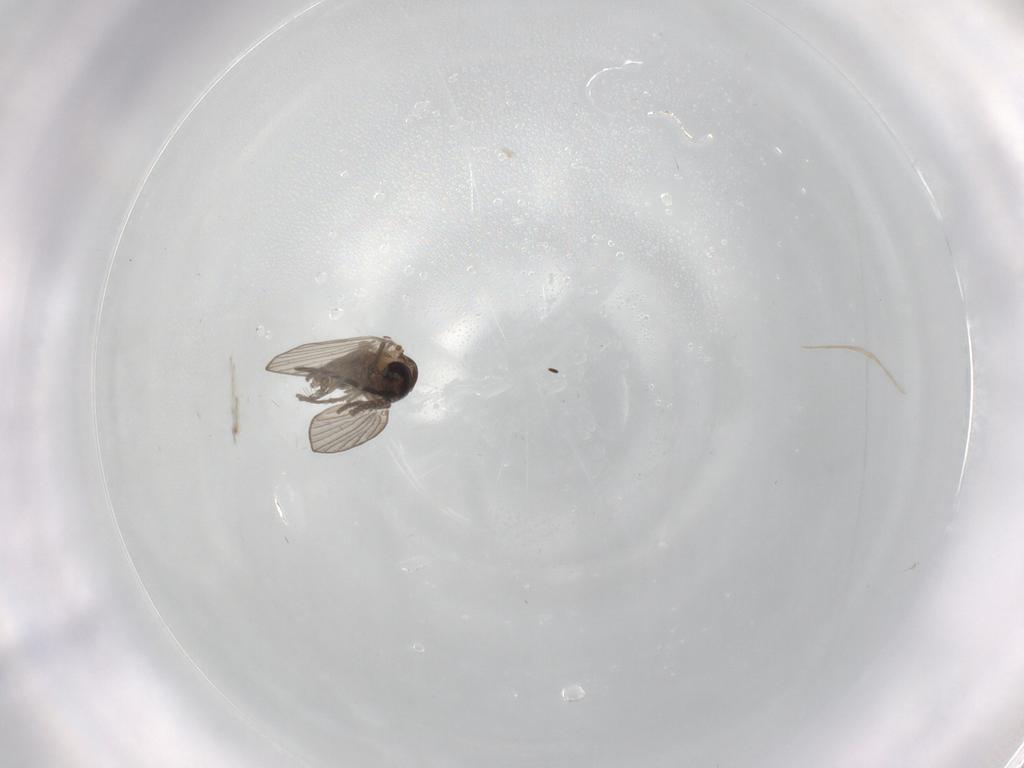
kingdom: Animalia
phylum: Arthropoda
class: Insecta
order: Diptera
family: Psychodidae
